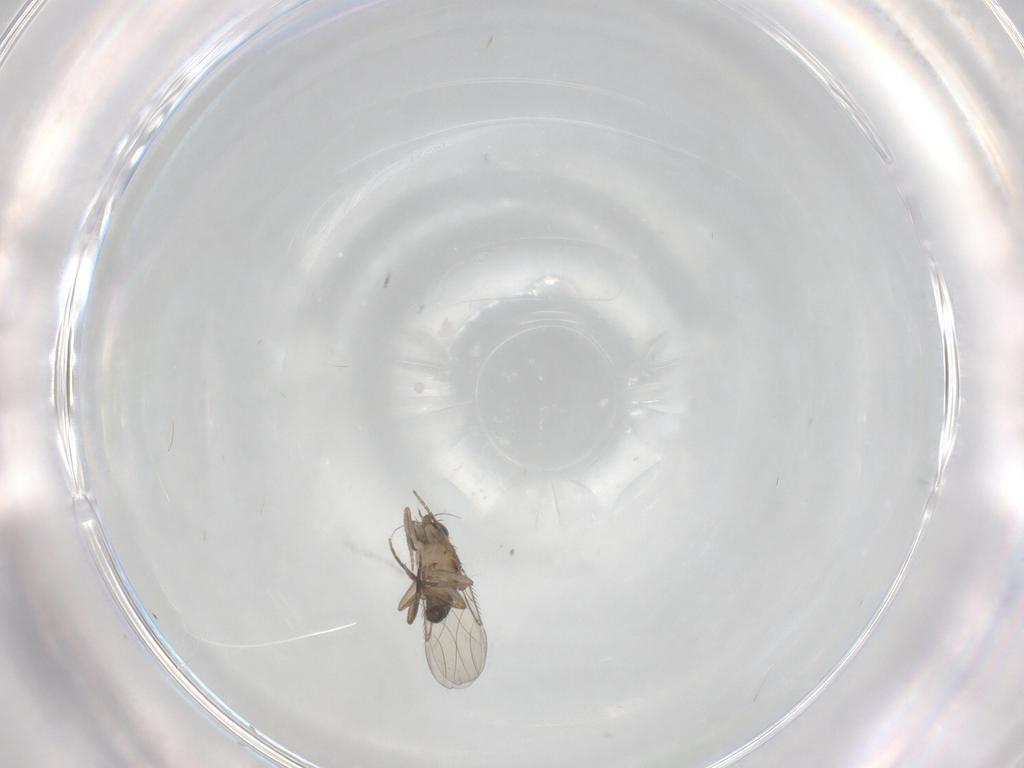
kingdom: Animalia
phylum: Arthropoda
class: Insecta
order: Diptera
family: Phoridae
